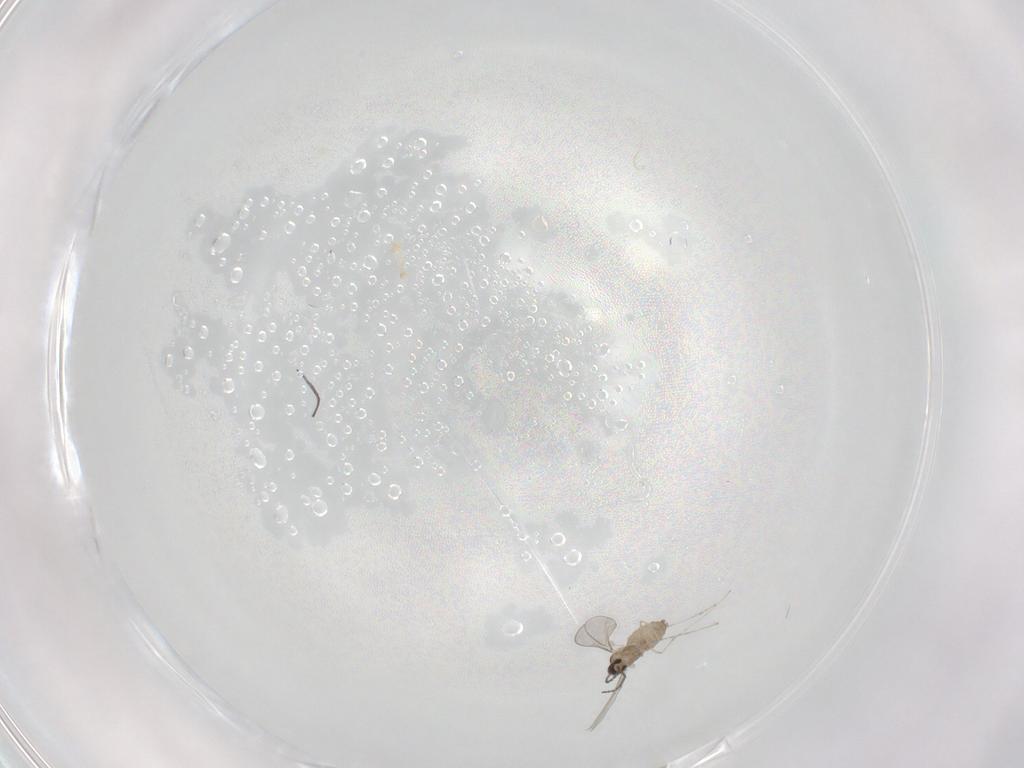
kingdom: Animalia
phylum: Arthropoda
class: Insecta
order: Diptera
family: Cecidomyiidae
